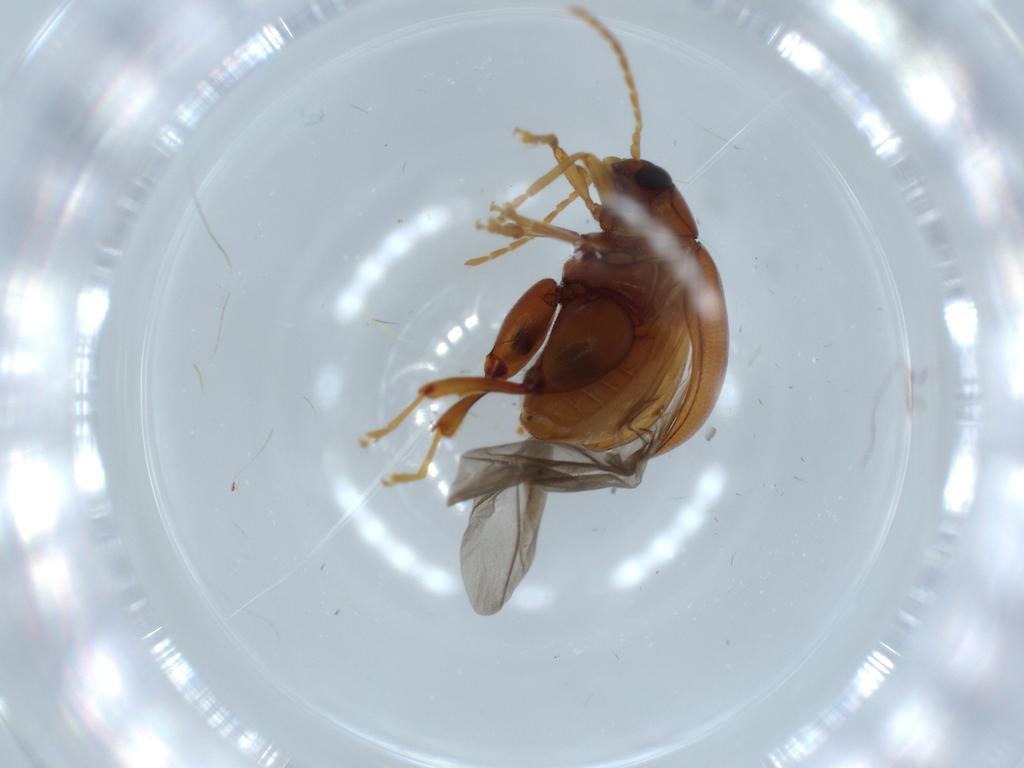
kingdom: Animalia
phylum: Arthropoda
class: Insecta
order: Coleoptera
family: Chrysomelidae
